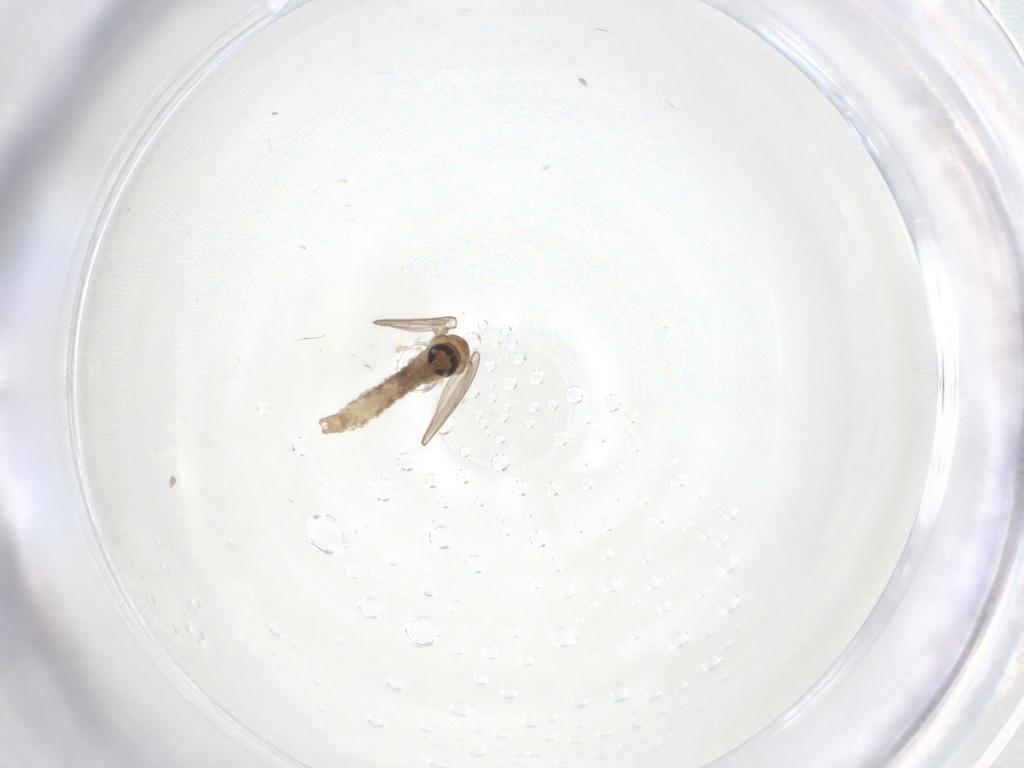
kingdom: Animalia
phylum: Arthropoda
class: Insecta
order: Diptera
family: Psychodidae
